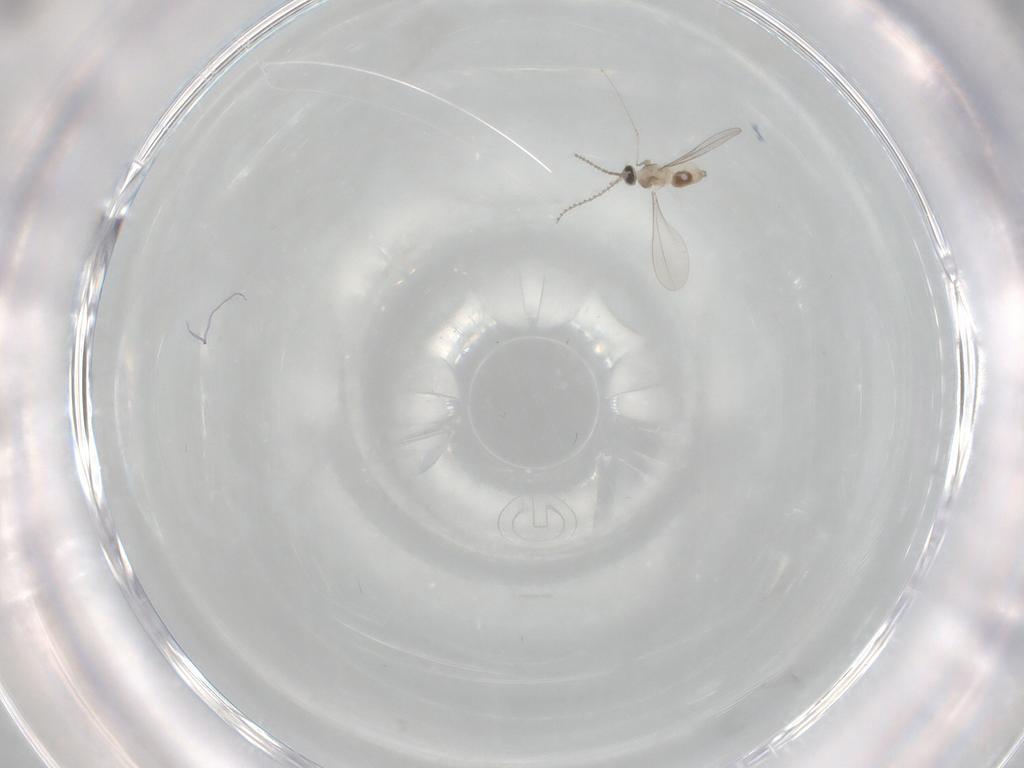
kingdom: Animalia
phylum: Arthropoda
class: Insecta
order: Diptera
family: Cecidomyiidae
